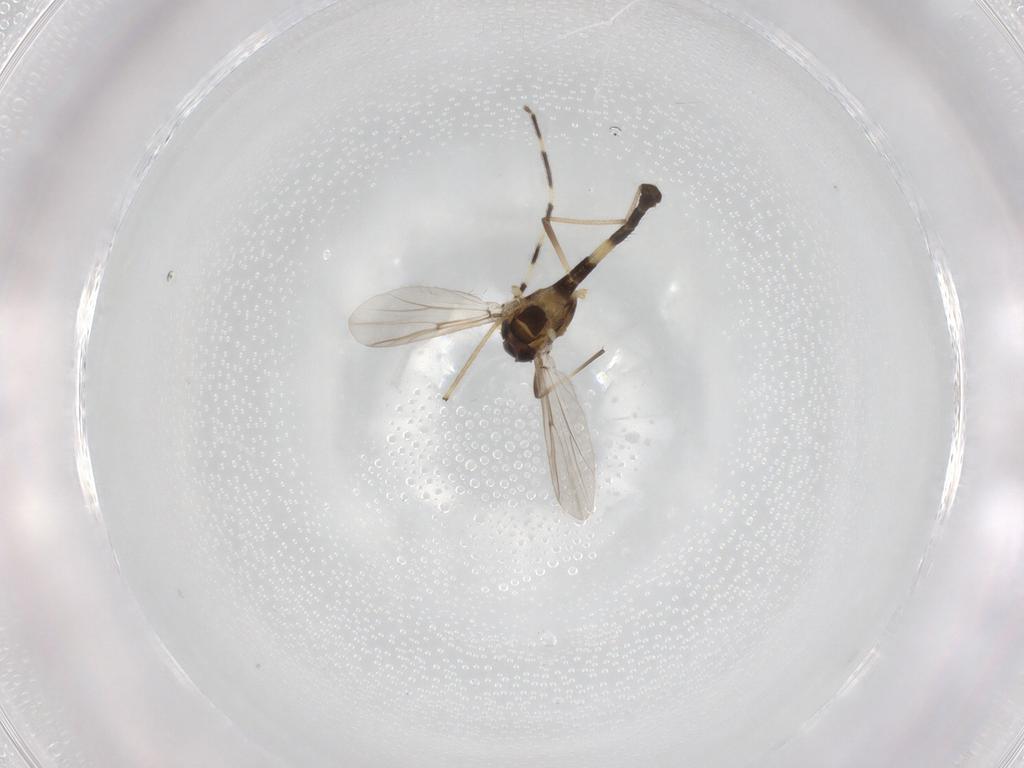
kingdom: Animalia
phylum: Arthropoda
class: Insecta
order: Diptera
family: Chironomidae
